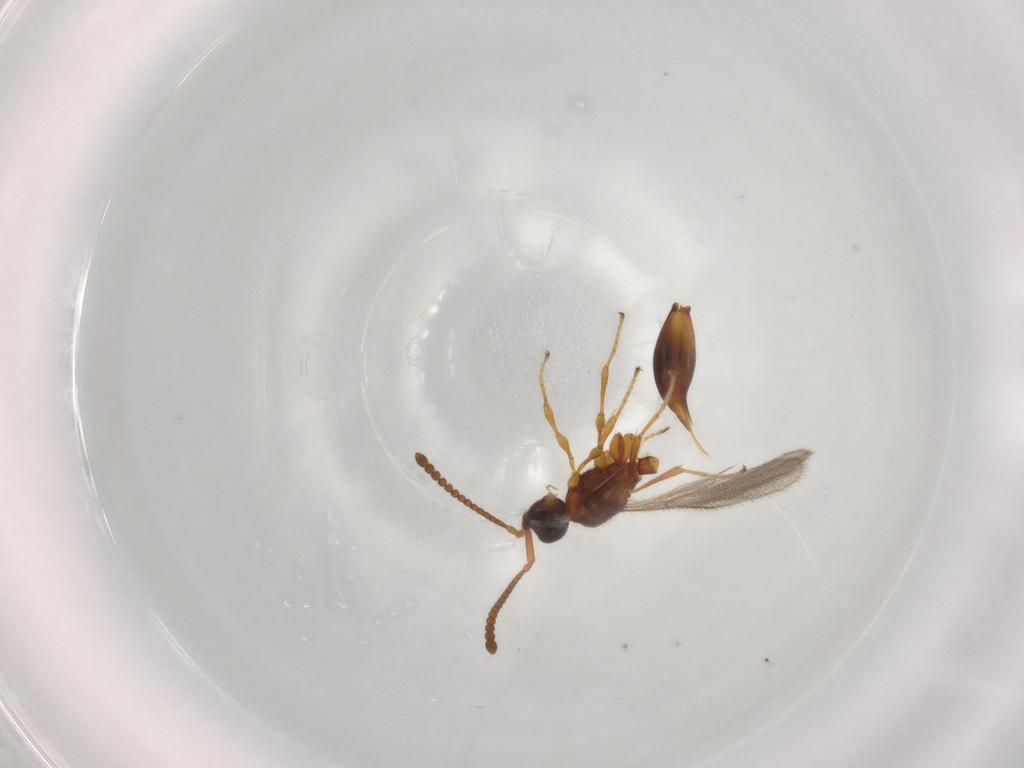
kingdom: Animalia
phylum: Arthropoda
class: Insecta
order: Hymenoptera
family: Diapriidae
